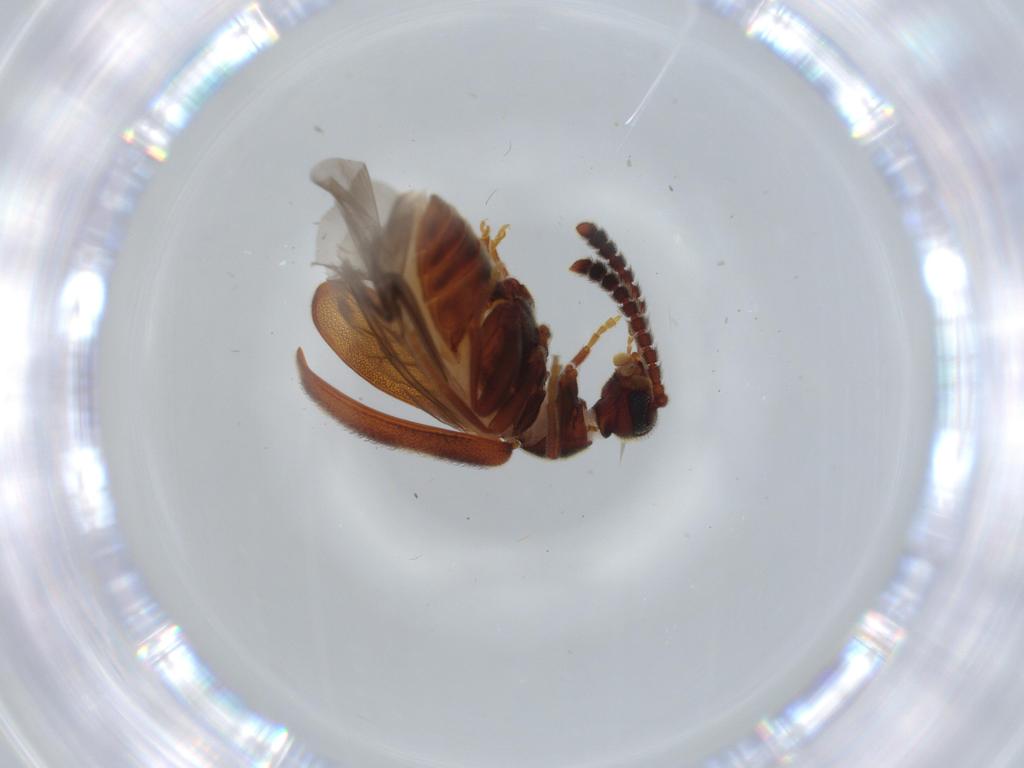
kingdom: Animalia
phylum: Arthropoda
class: Insecta
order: Coleoptera
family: Aderidae
